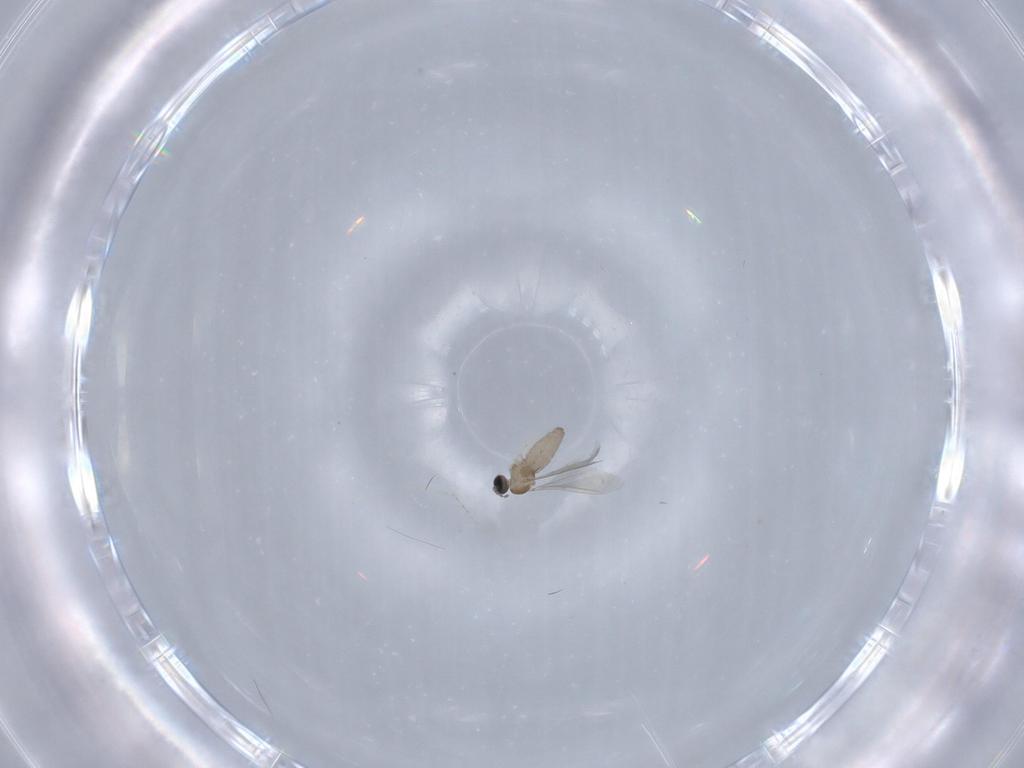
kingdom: Animalia
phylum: Arthropoda
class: Insecta
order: Diptera
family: Cecidomyiidae
